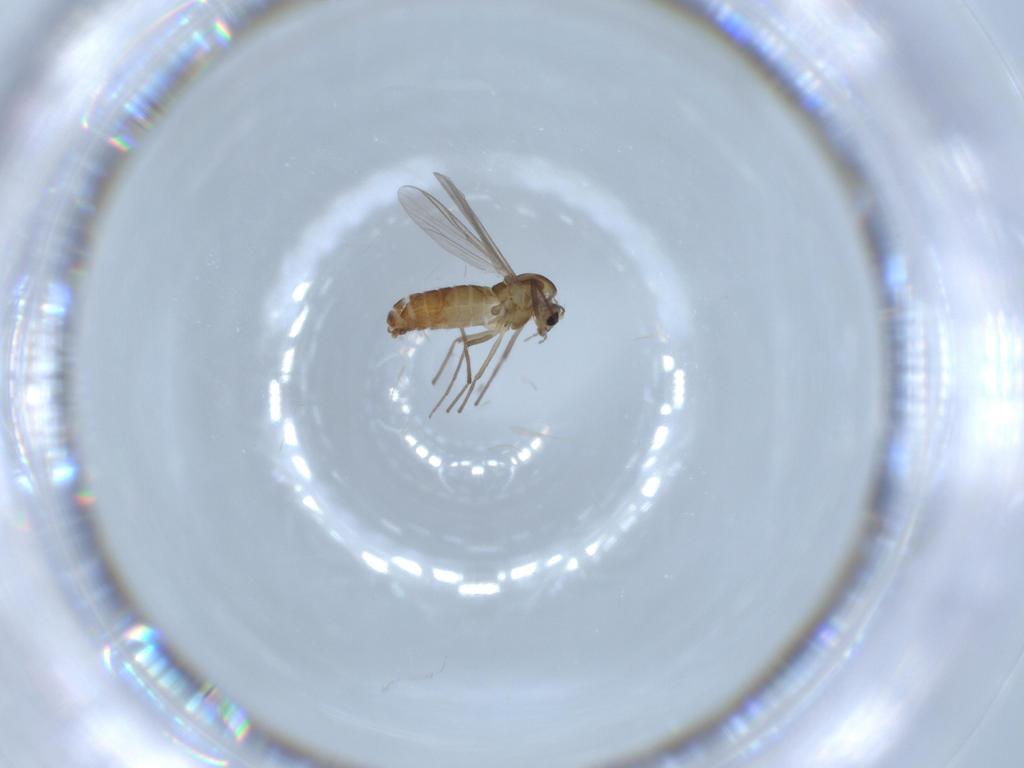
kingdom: Animalia
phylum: Arthropoda
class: Insecta
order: Diptera
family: Chironomidae
